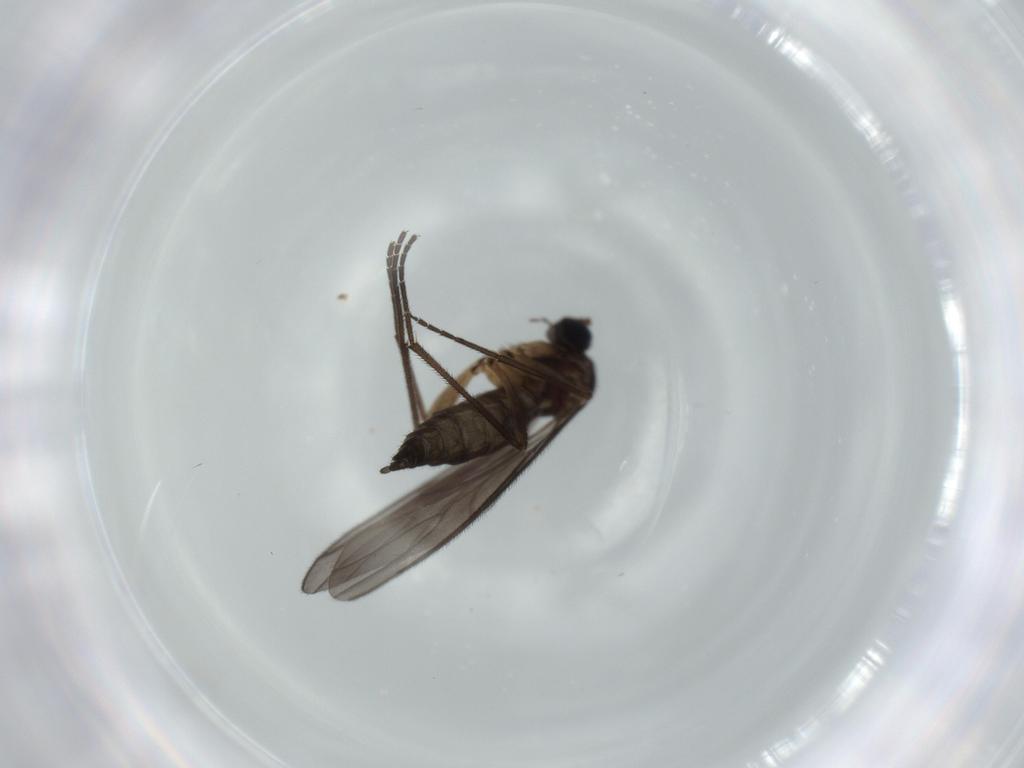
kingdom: Animalia
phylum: Arthropoda
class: Insecta
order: Diptera
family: Sciaridae
